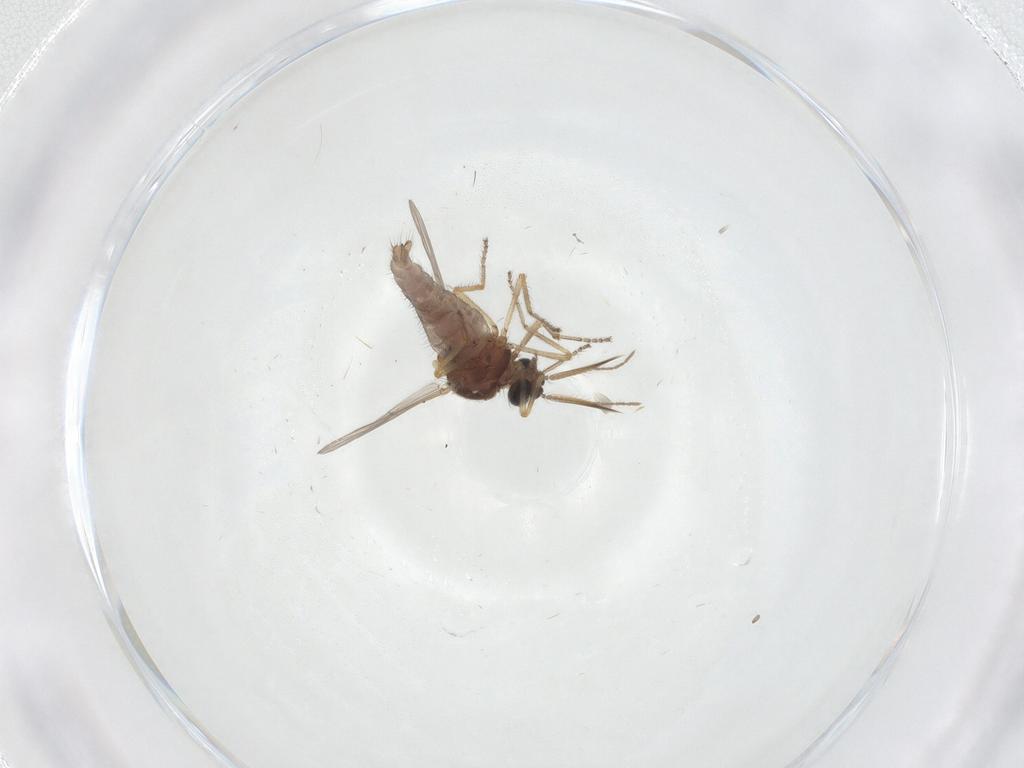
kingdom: Animalia
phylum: Arthropoda
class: Insecta
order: Diptera
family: Ceratopogonidae
